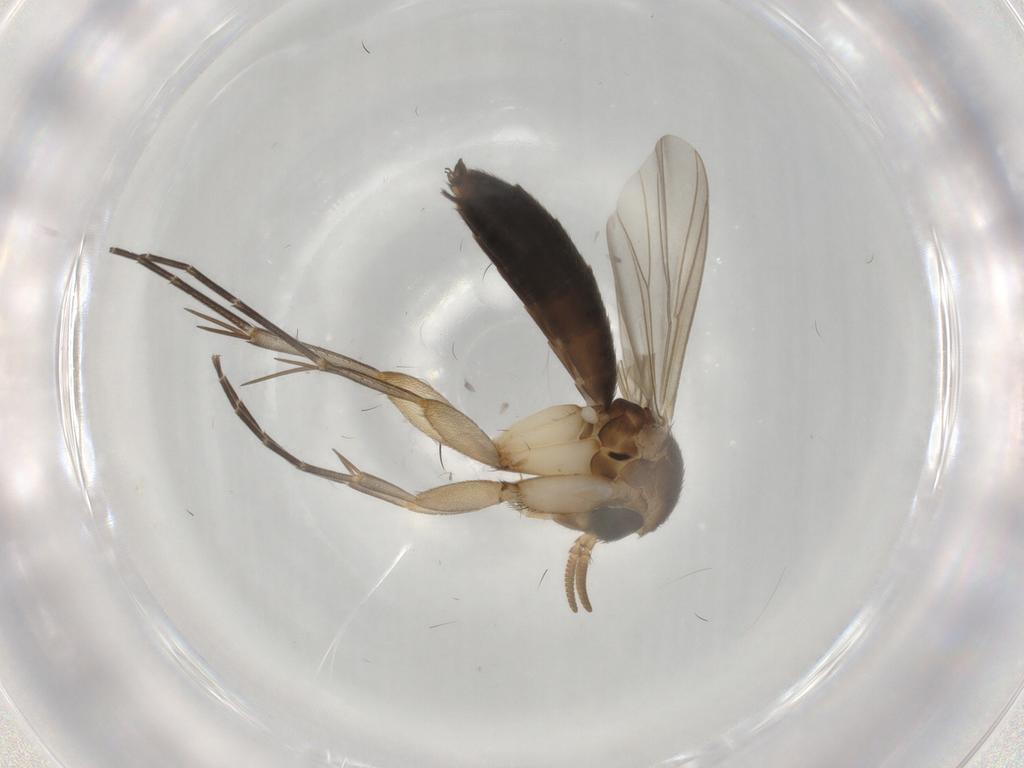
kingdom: Animalia
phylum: Arthropoda
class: Insecta
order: Diptera
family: Mycetophilidae
